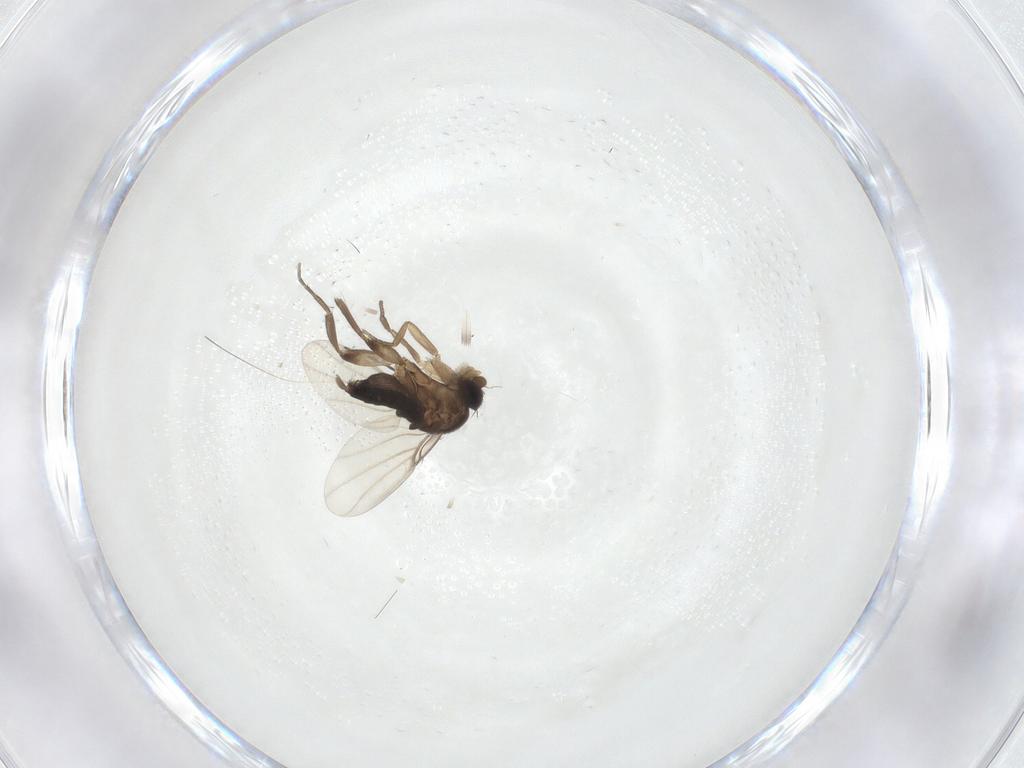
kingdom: Animalia
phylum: Arthropoda
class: Insecta
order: Diptera
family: Phoridae
